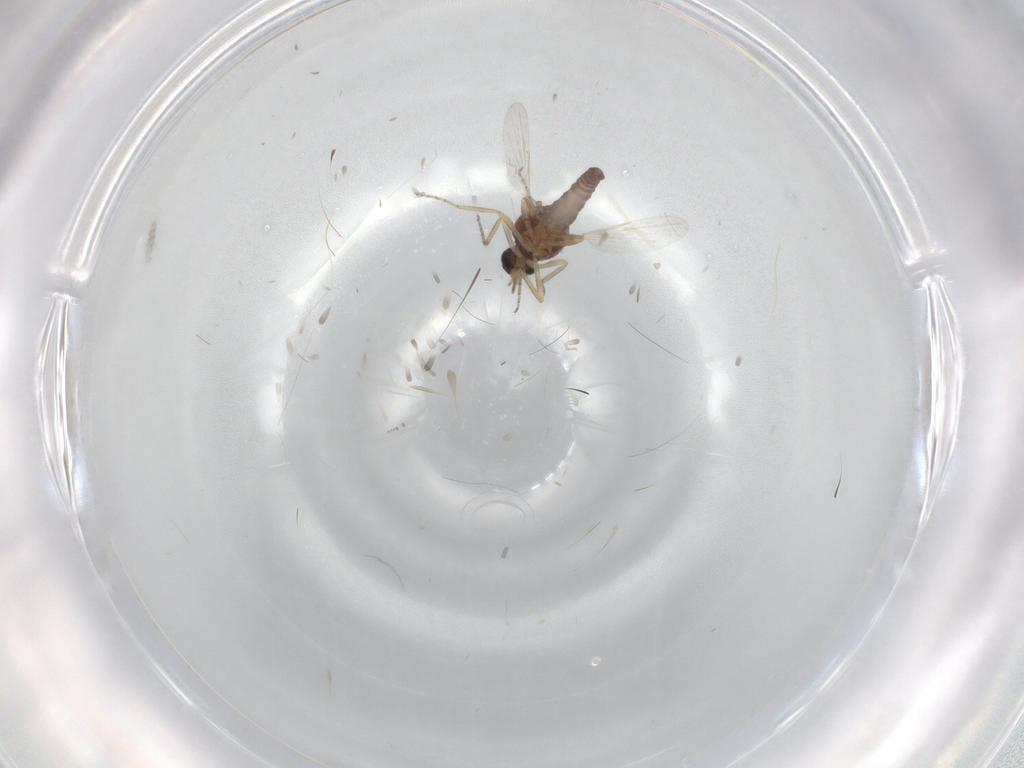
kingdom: Animalia
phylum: Arthropoda
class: Insecta
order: Diptera
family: Ceratopogonidae
